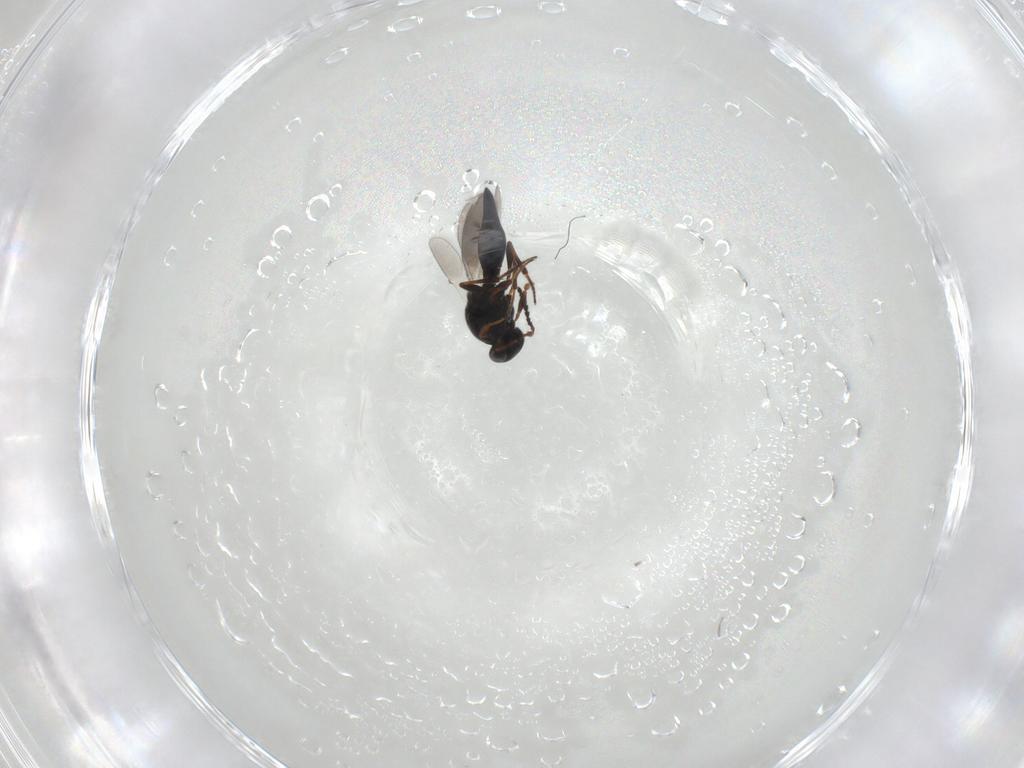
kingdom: Animalia
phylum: Arthropoda
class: Insecta
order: Hymenoptera
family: Platygastridae
